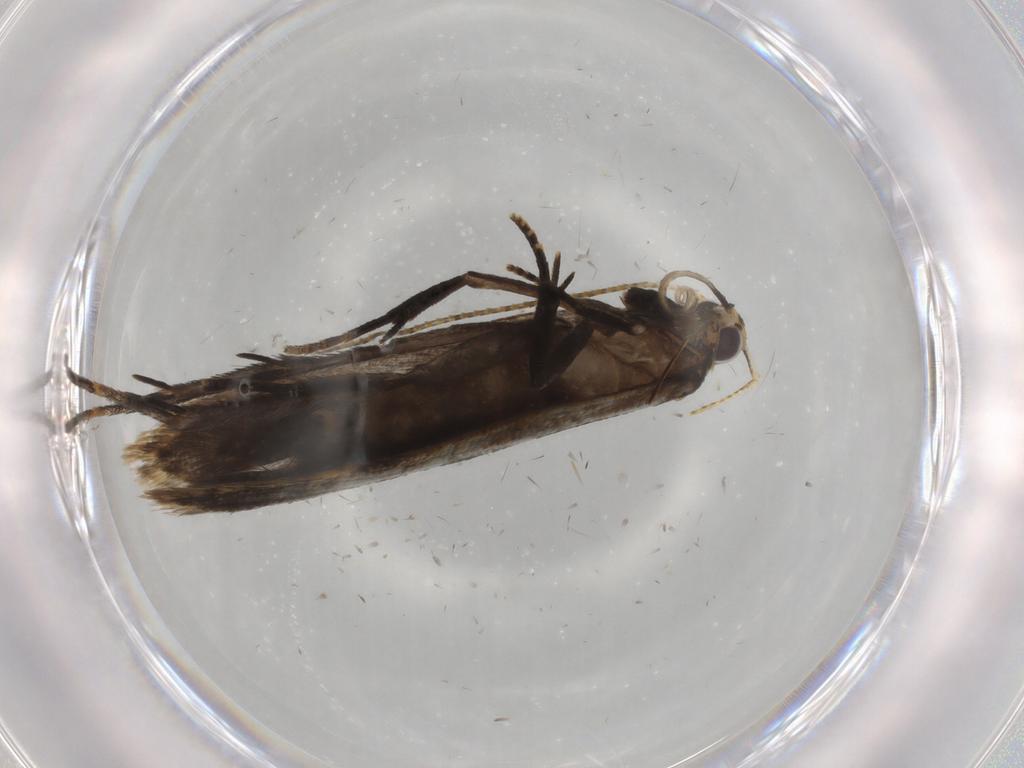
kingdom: Animalia
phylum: Arthropoda
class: Insecta
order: Lepidoptera
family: Gelechiidae
